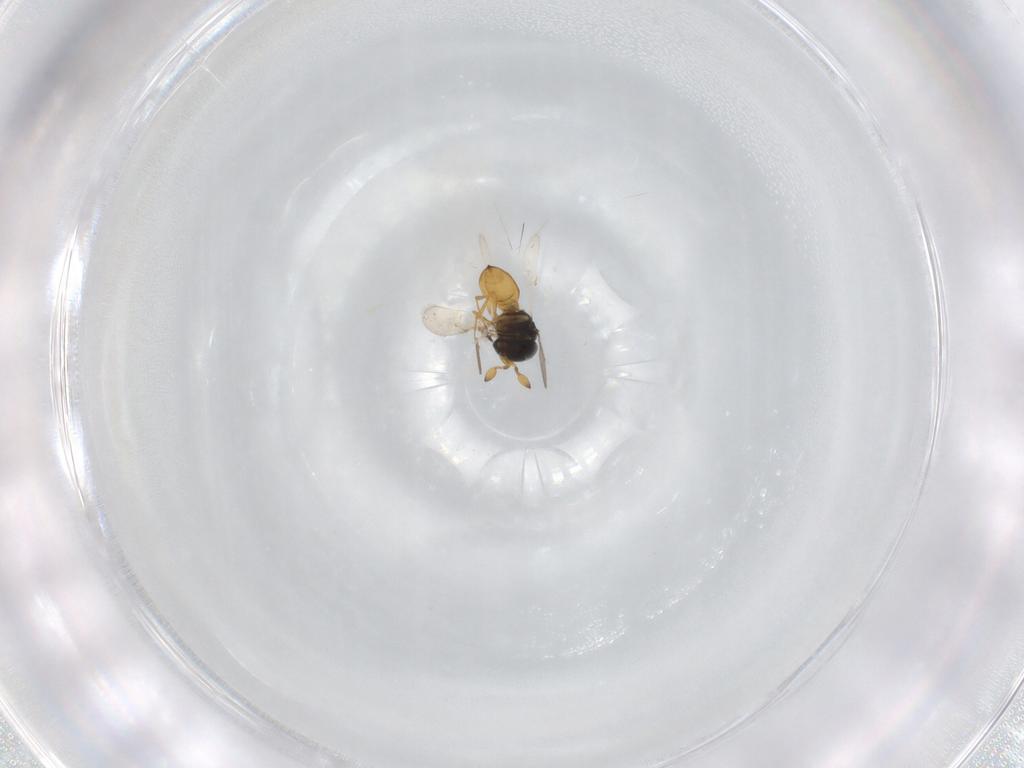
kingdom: Animalia
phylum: Arthropoda
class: Insecta
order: Hymenoptera
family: Scelionidae
